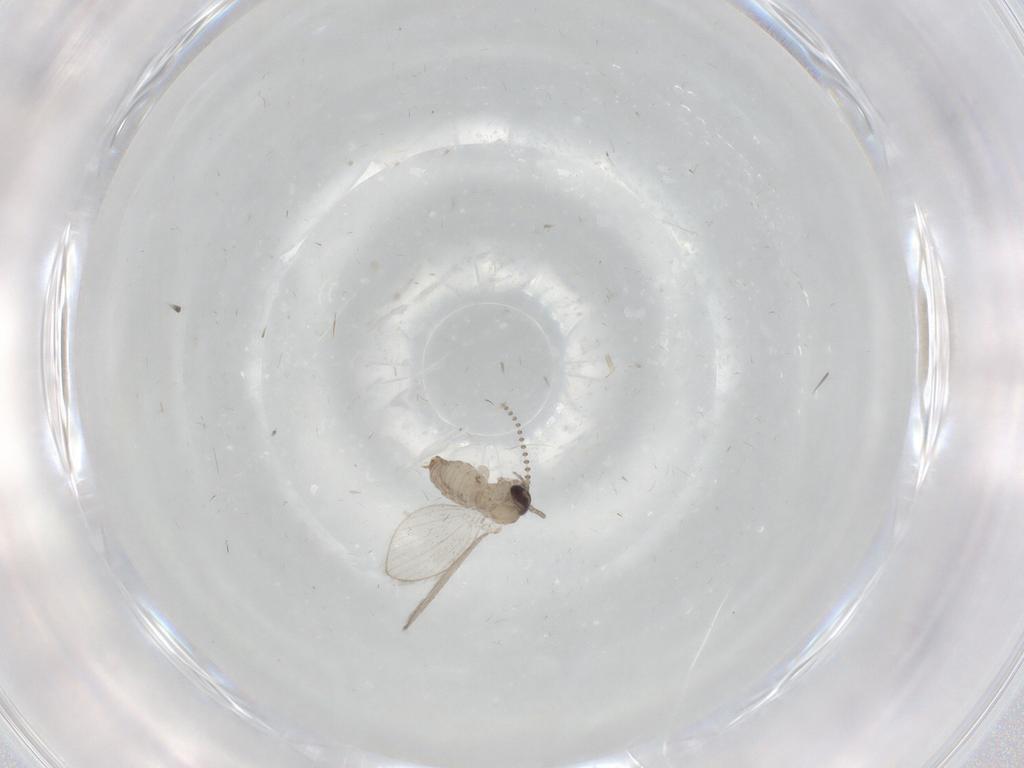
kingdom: Animalia
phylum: Arthropoda
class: Insecta
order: Diptera
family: Psychodidae
